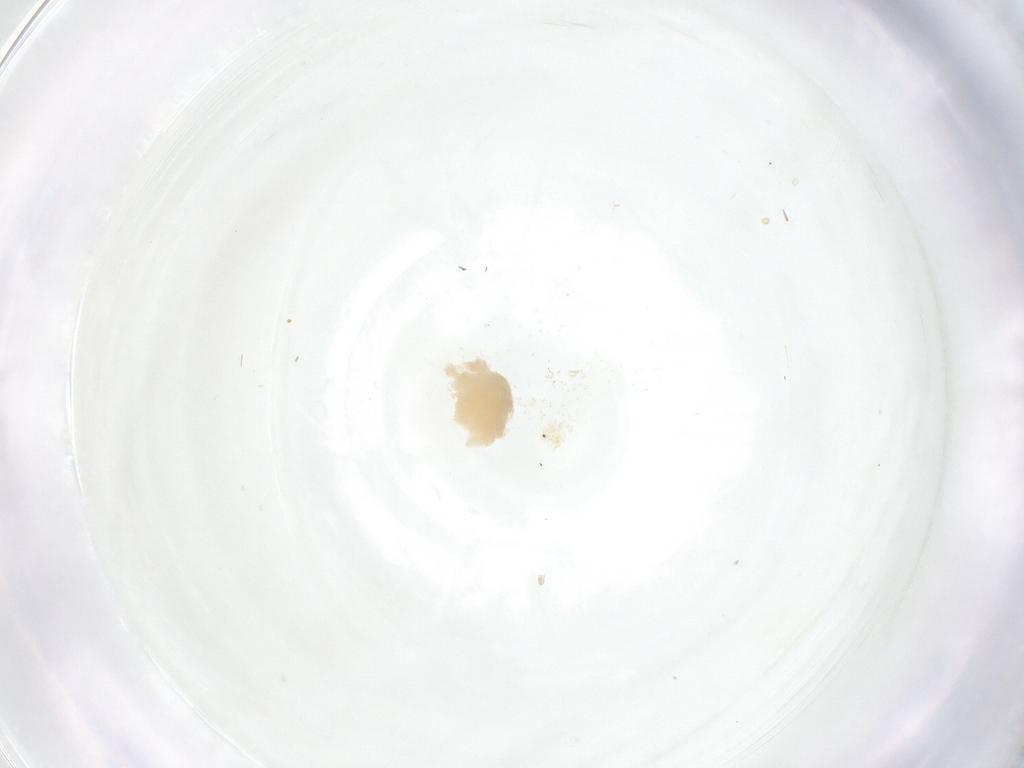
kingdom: Animalia
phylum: Arthropoda
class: Insecta
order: Diptera
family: Fergusoninidae
